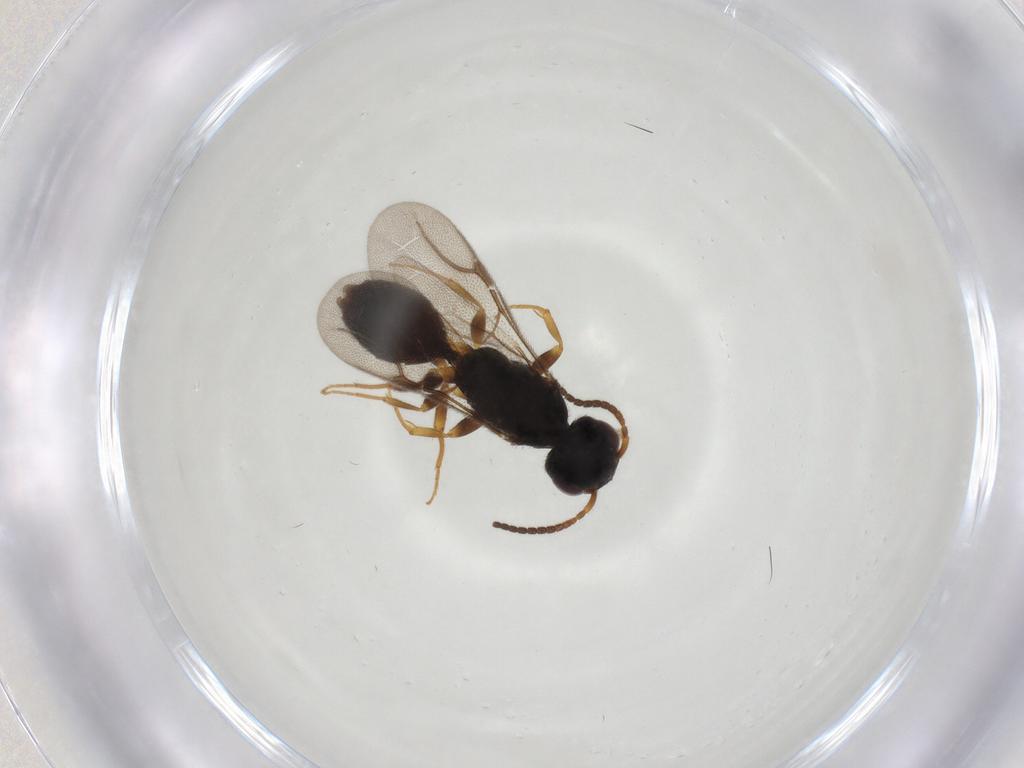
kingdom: Animalia
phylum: Arthropoda
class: Insecta
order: Hymenoptera
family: Bethylidae
